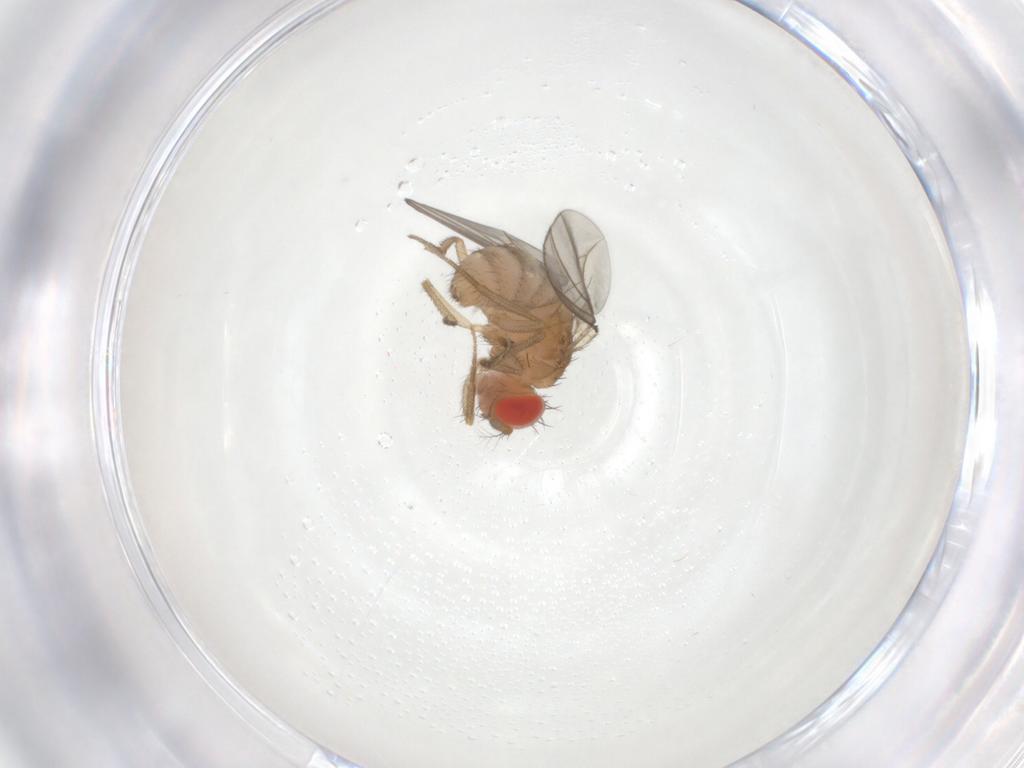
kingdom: Animalia
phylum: Arthropoda
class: Insecta
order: Diptera
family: Drosophilidae
